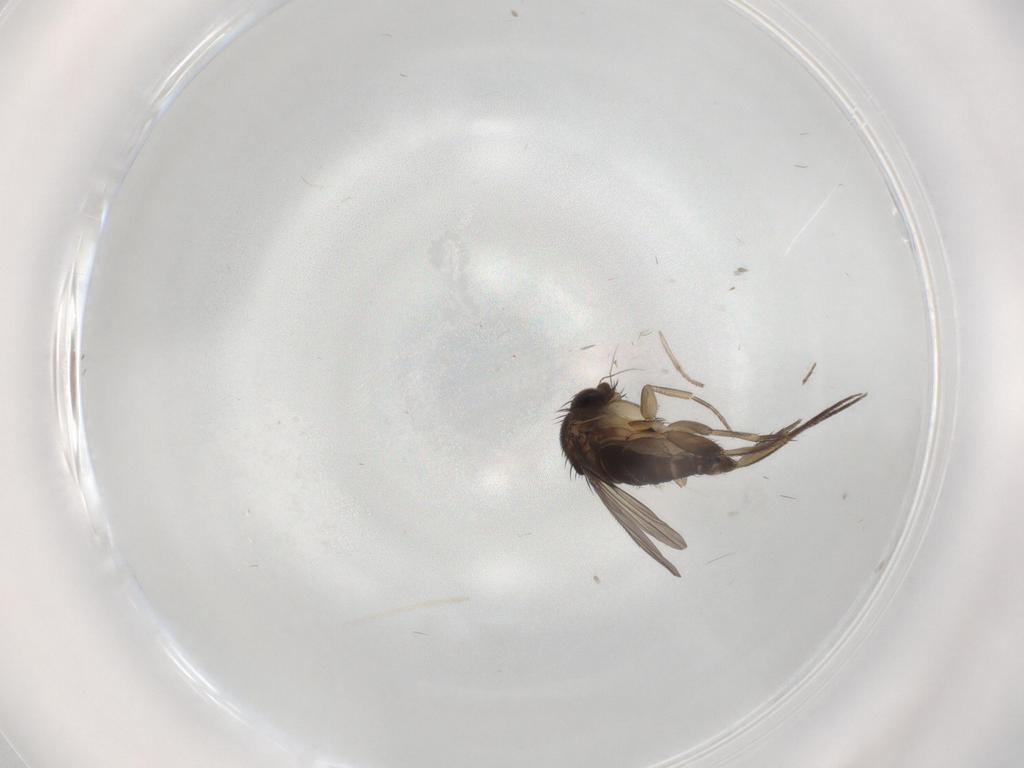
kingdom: Animalia
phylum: Arthropoda
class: Insecta
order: Diptera
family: Phoridae
